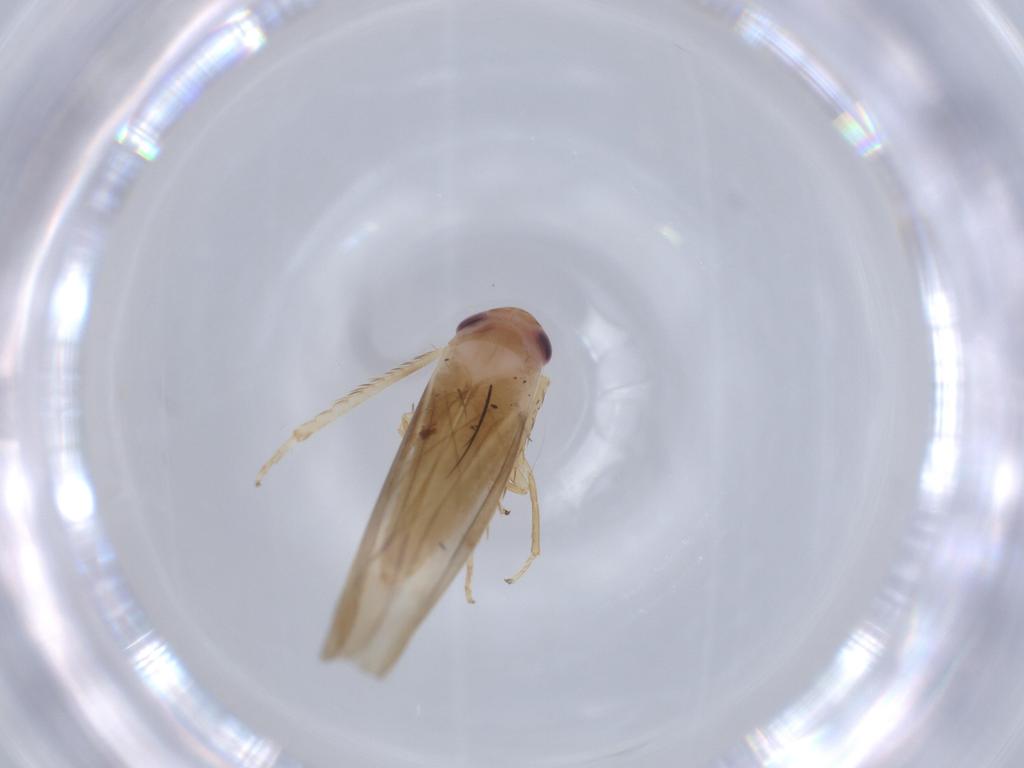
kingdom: Animalia
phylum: Arthropoda
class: Insecta
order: Hemiptera
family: Cicadellidae
